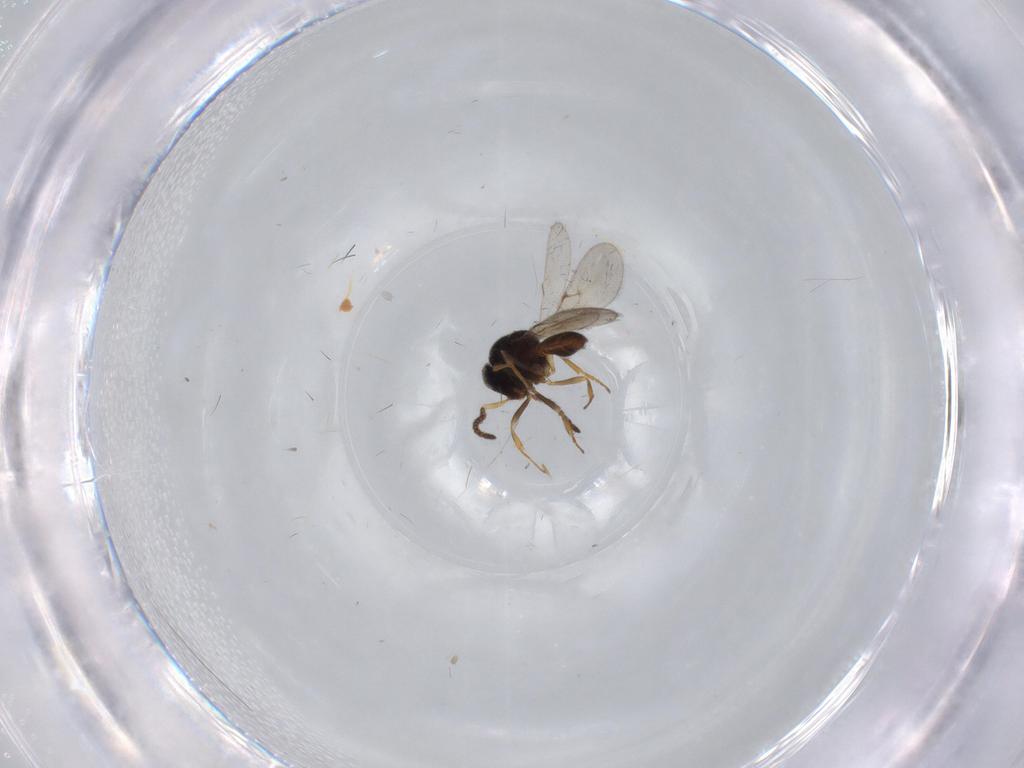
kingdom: Animalia
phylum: Arthropoda
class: Insecta
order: Hymenoptera
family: Scelionidae
